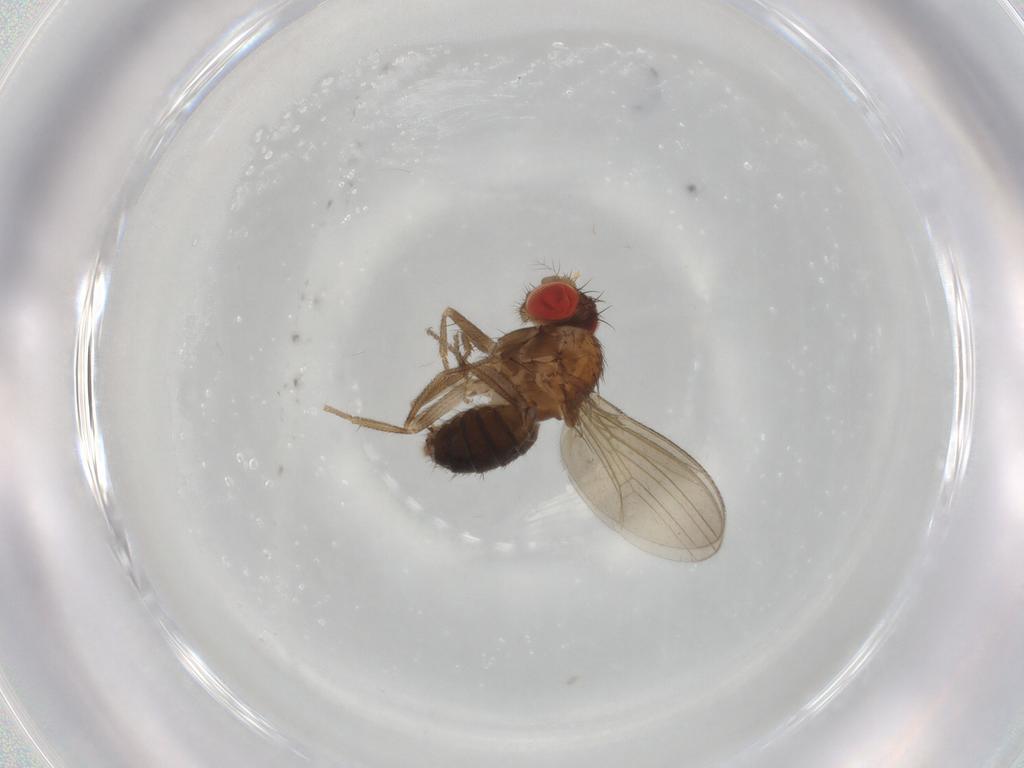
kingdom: Animalia
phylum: Arthropoda
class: Insecta
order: Diptera
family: Drosophilidae
